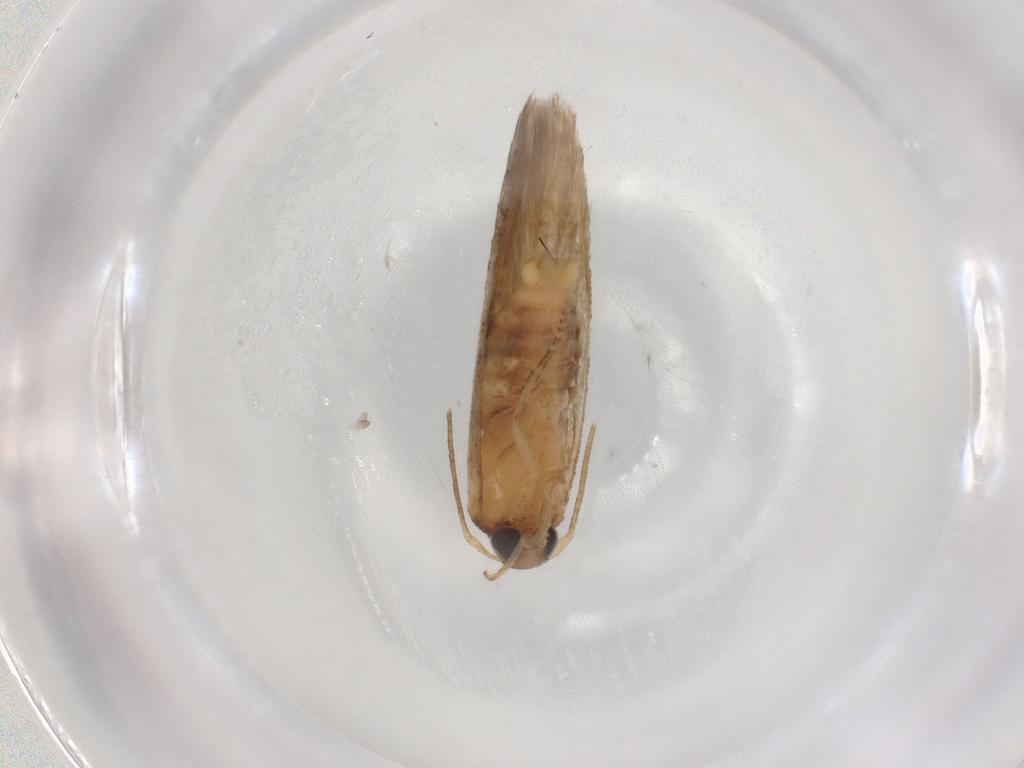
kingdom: Animalia
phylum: Arthropoda
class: Insecta
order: Lepidoptera
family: Cosmopterigidae
